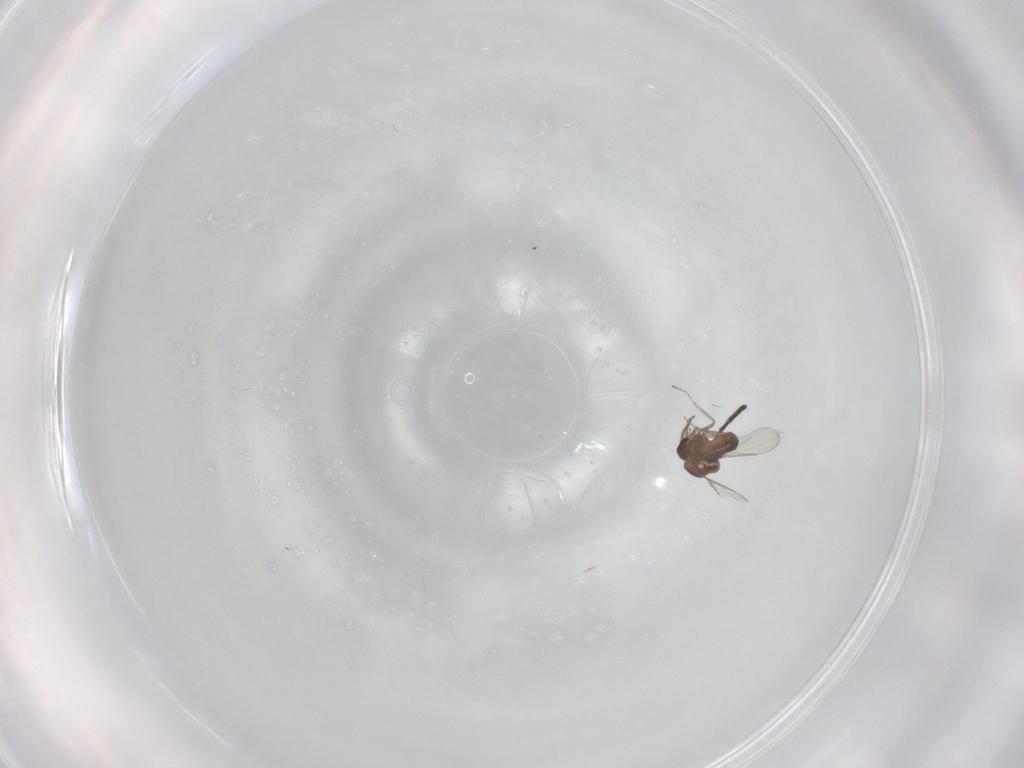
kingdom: Animalia
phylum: Arthropoda
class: Insecta
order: Diptera
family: Ceratopogonidae
